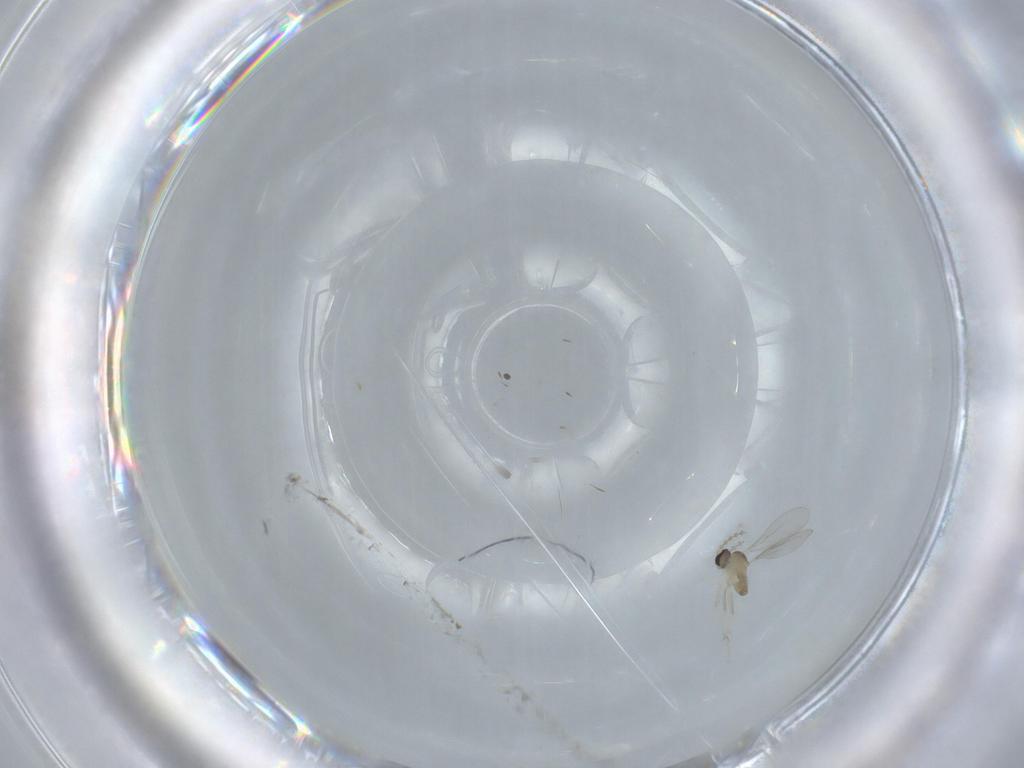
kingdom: Animalia
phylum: Arthropoda
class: Insecta
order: Diptera
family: Cecidomyiidae
